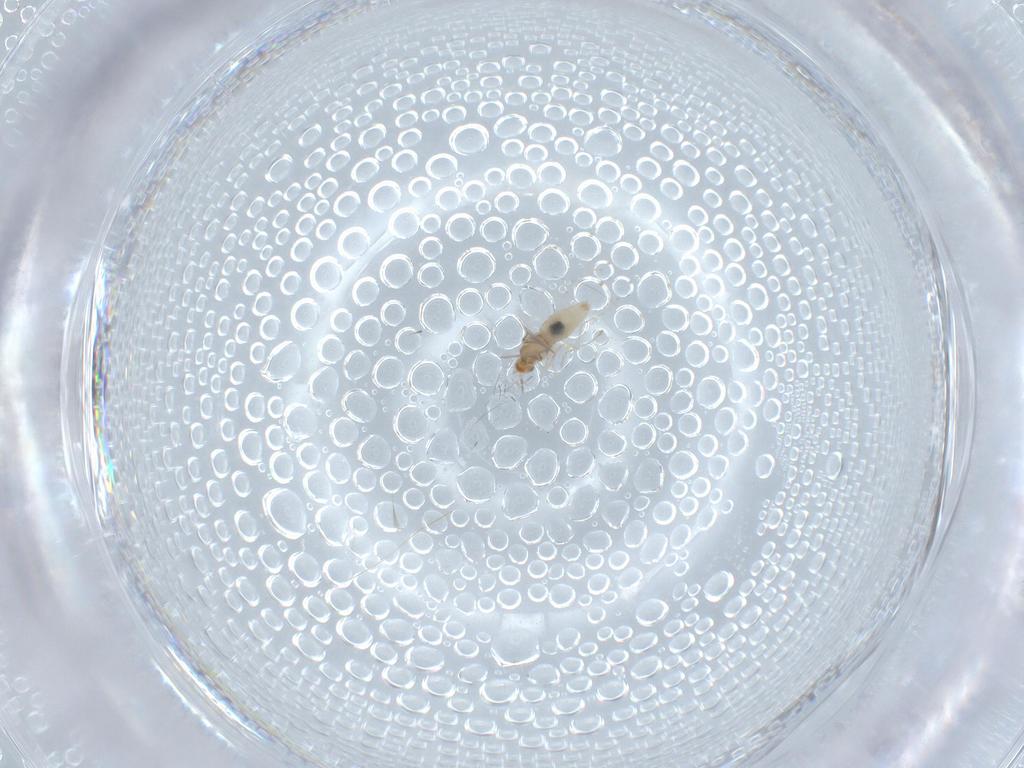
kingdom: Animalia
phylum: Arthropoda
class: Insecta
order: Diptera
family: Cecidomyiidae
